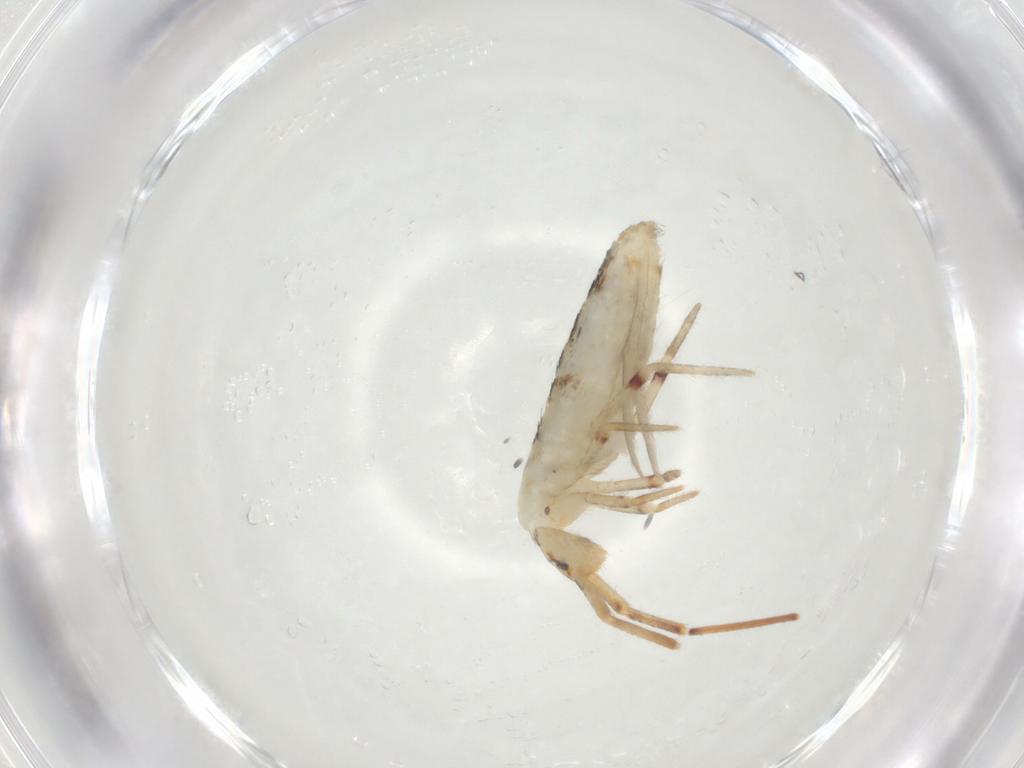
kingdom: Animalia
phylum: Arthropoda
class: Collembola
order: Entomobryomorpha
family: Entomobryidae
